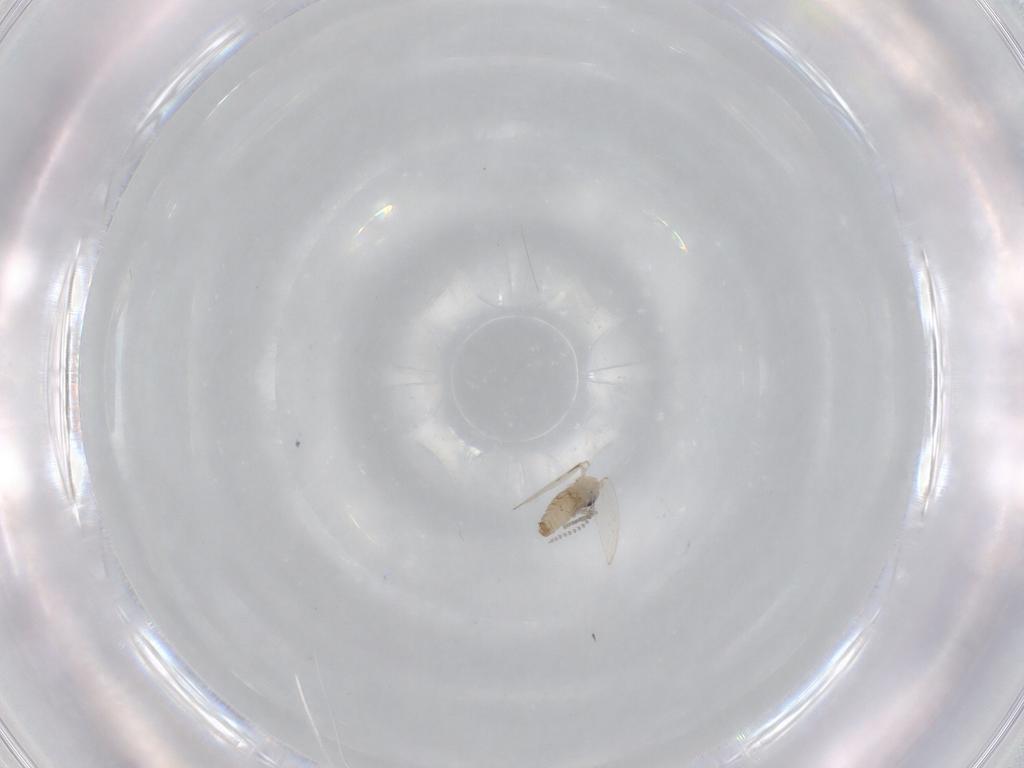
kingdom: Animalia
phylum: Arthropoda
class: Insecta
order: Diptera
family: Psychodidae
